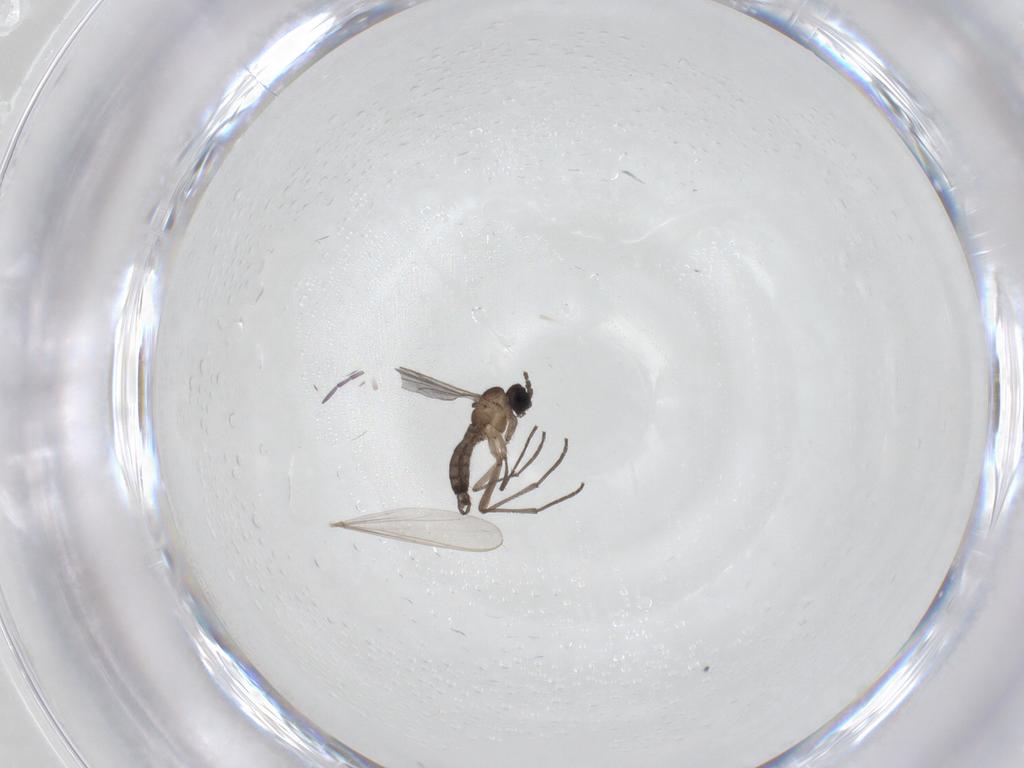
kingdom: Animalia
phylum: Arthropoda
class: Insecta
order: Diptera
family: Sciaridae
